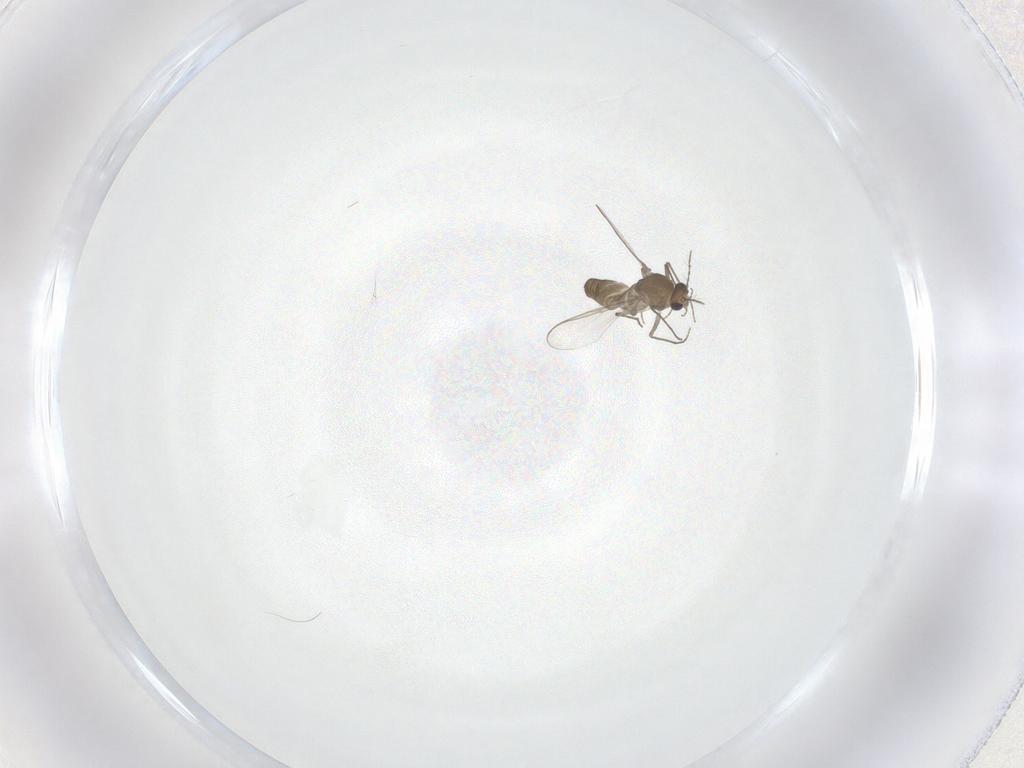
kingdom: Animalia
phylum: Arthropoda
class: Insecta
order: Diptera
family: Chironomidae
